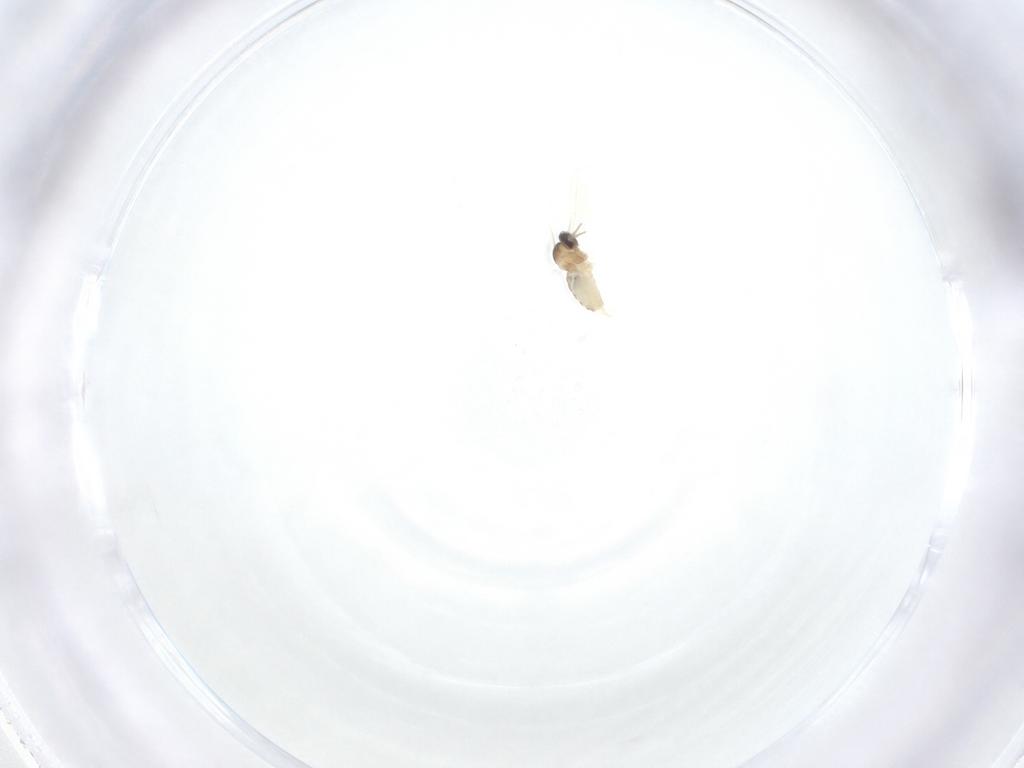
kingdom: Animalia
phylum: Arthropoda
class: Insecta
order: Diptera
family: Cecidomyiidae
